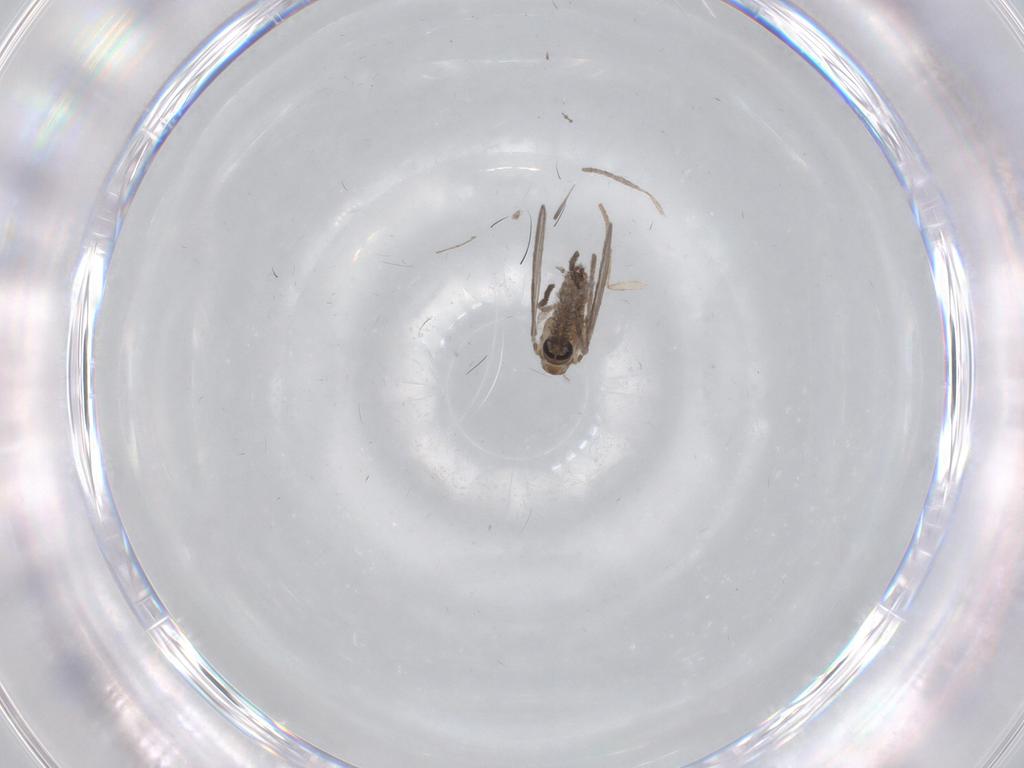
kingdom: Animalia
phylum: Arthropoda
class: Insecta
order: Diptera
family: Psychodidae
